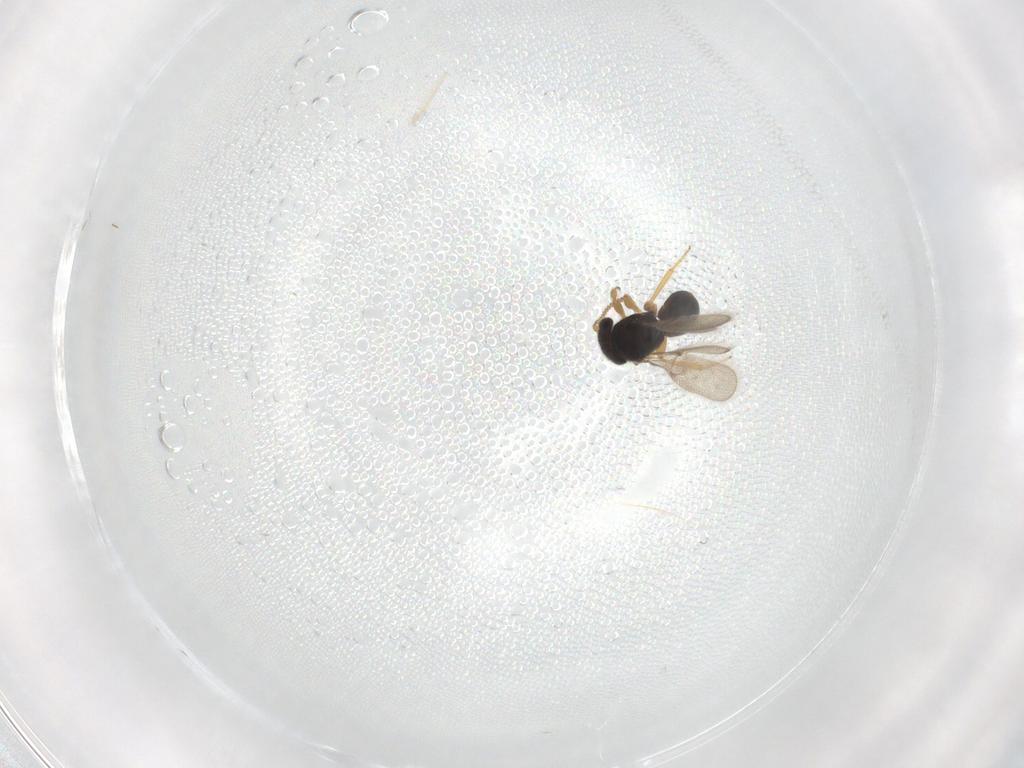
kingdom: Animalia
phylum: Arthropoda
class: Insecta
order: Hymenoptera
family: Scelionidae
